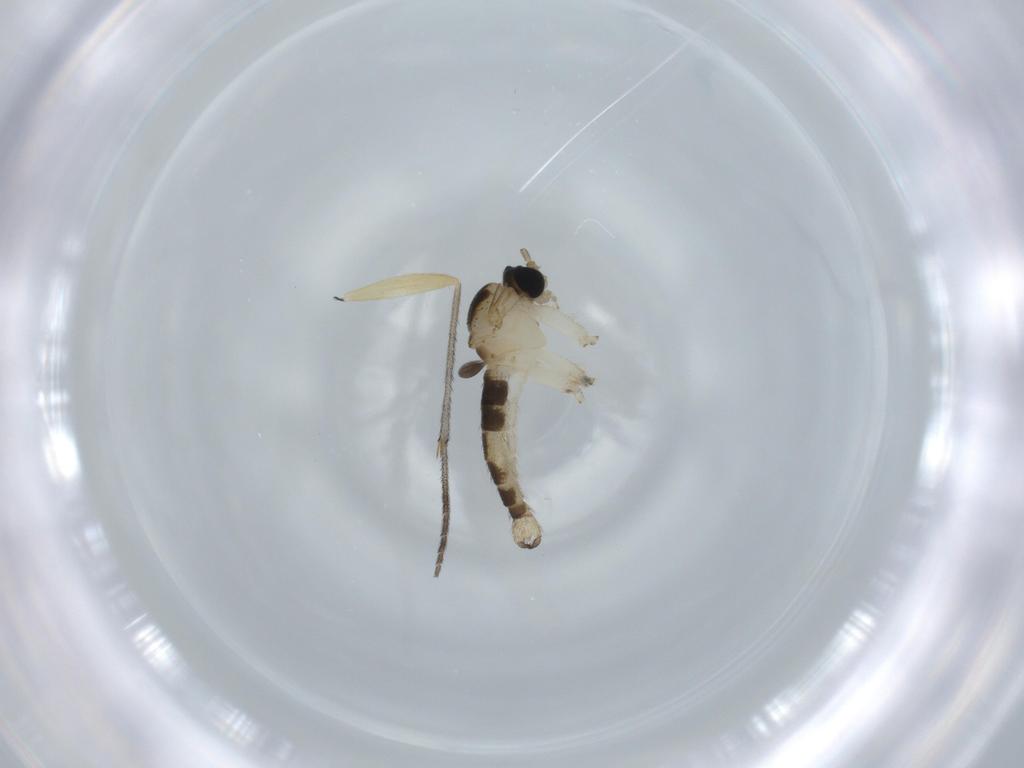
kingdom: Animalia
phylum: Arthropoda
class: Insecta
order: Diptera
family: Sciaridae
